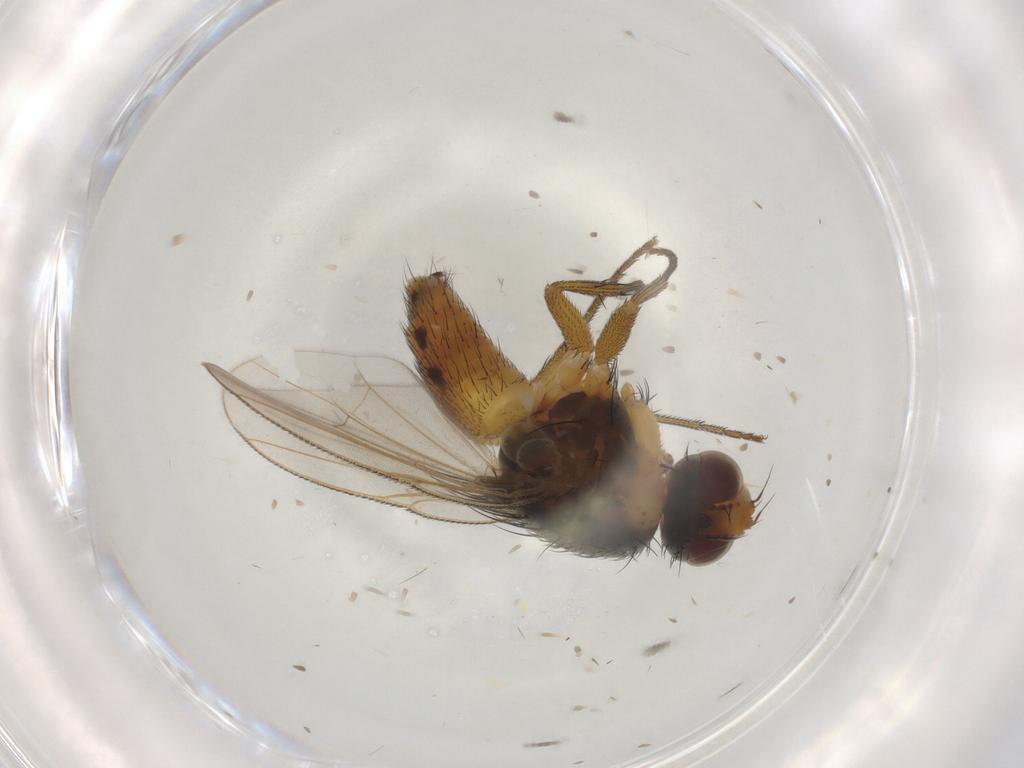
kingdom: Animalia
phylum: Arthropoda
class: Insecta
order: Diptera
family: Muscidae
